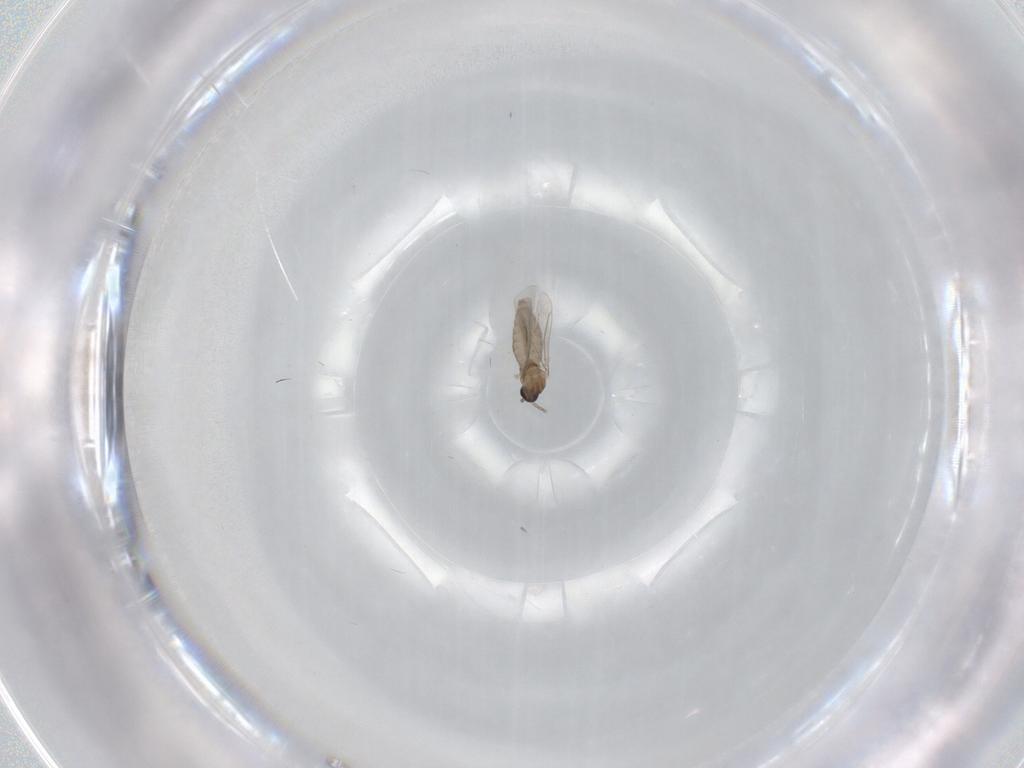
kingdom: Animalia
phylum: Arthropoda
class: Insecta
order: Diptera
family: Cecidomyiidae
